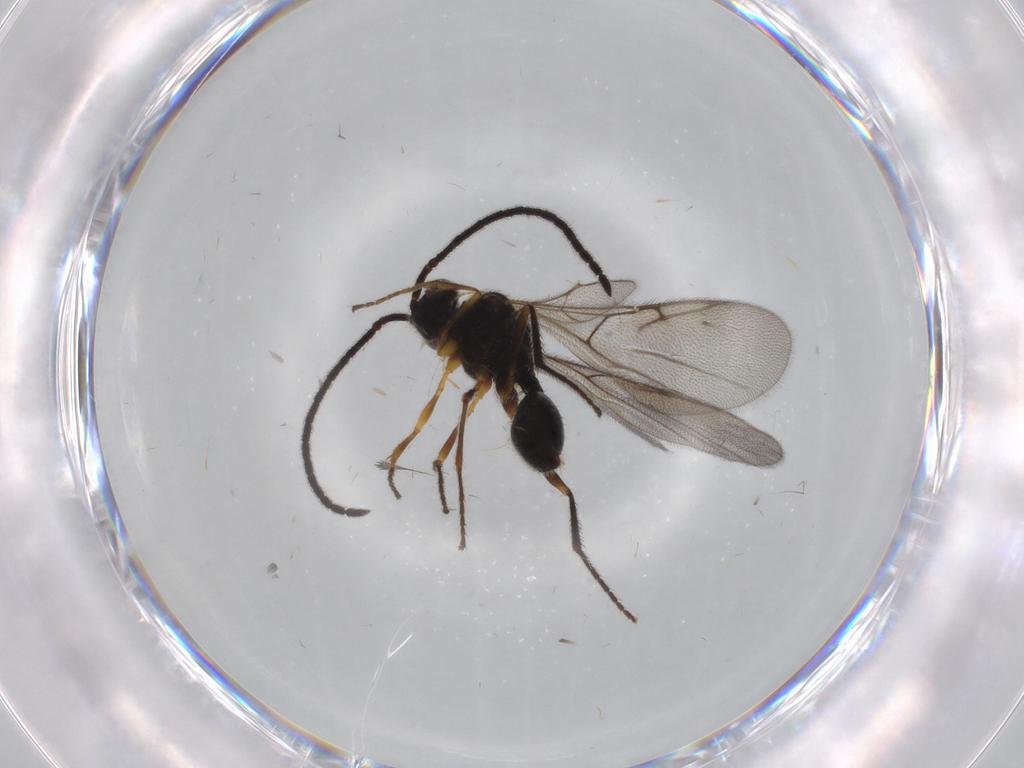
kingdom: Animalia
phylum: Arthropoda
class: Insecta
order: Hymenoptera
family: Diapriidae
